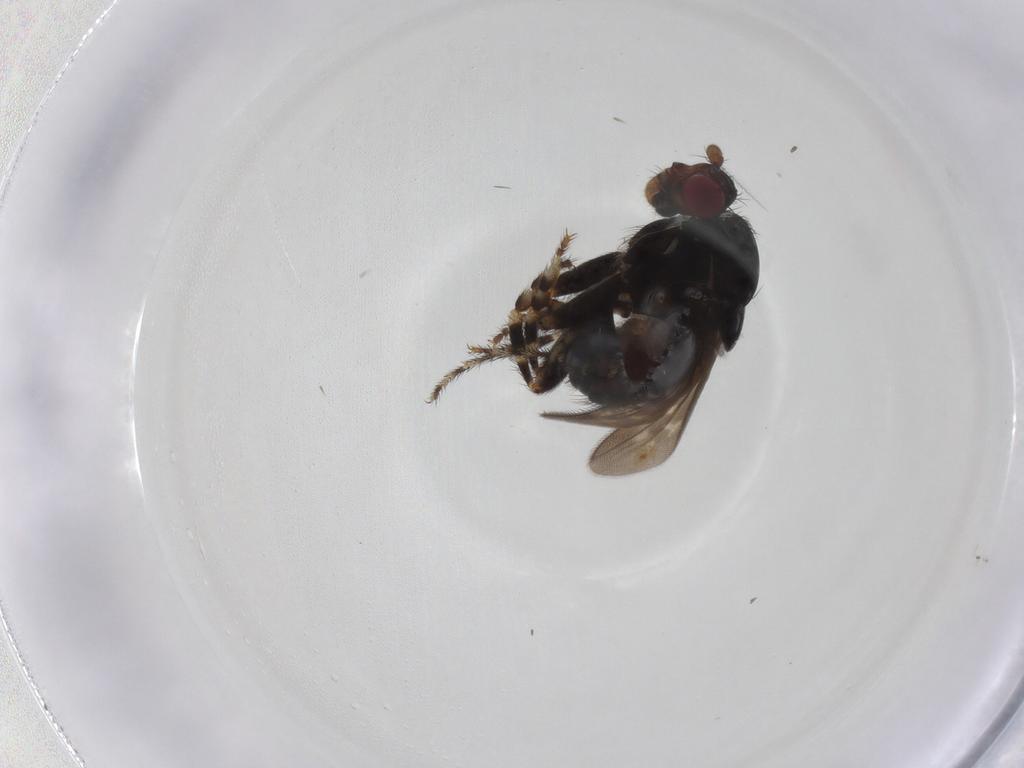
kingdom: Animalia
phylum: Arthropoda
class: Insecta
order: Diptera
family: Sphaeroceridae
